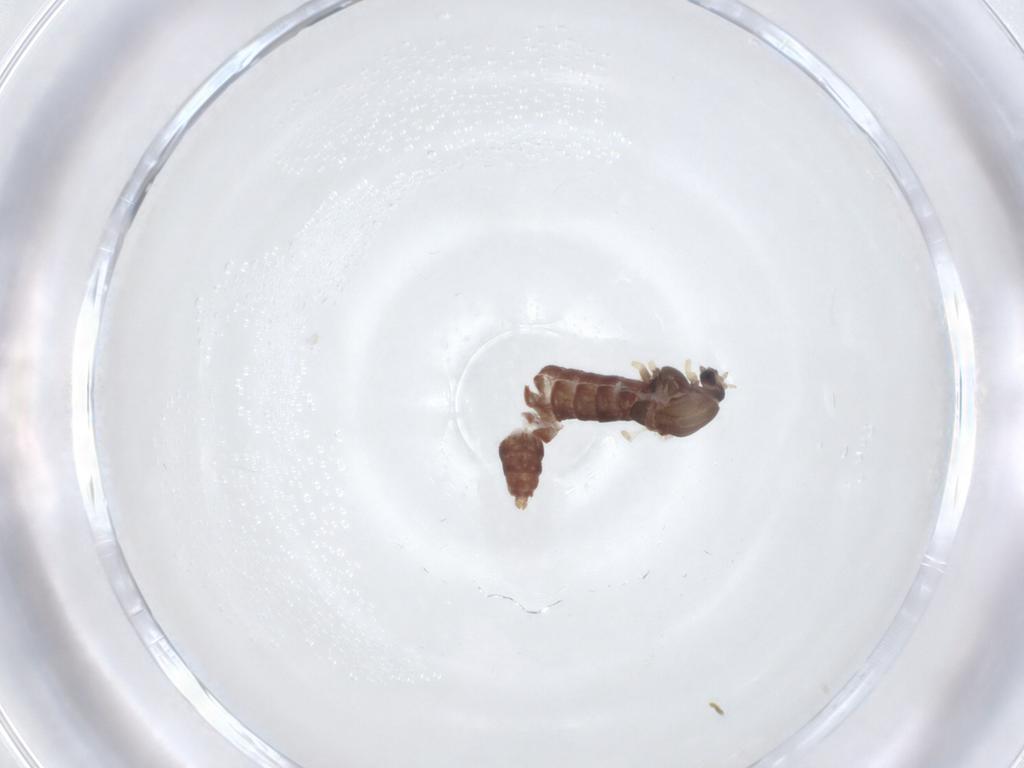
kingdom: Animalia
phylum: Arthropoda
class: Insecta
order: Diptera
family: Chironomidae
